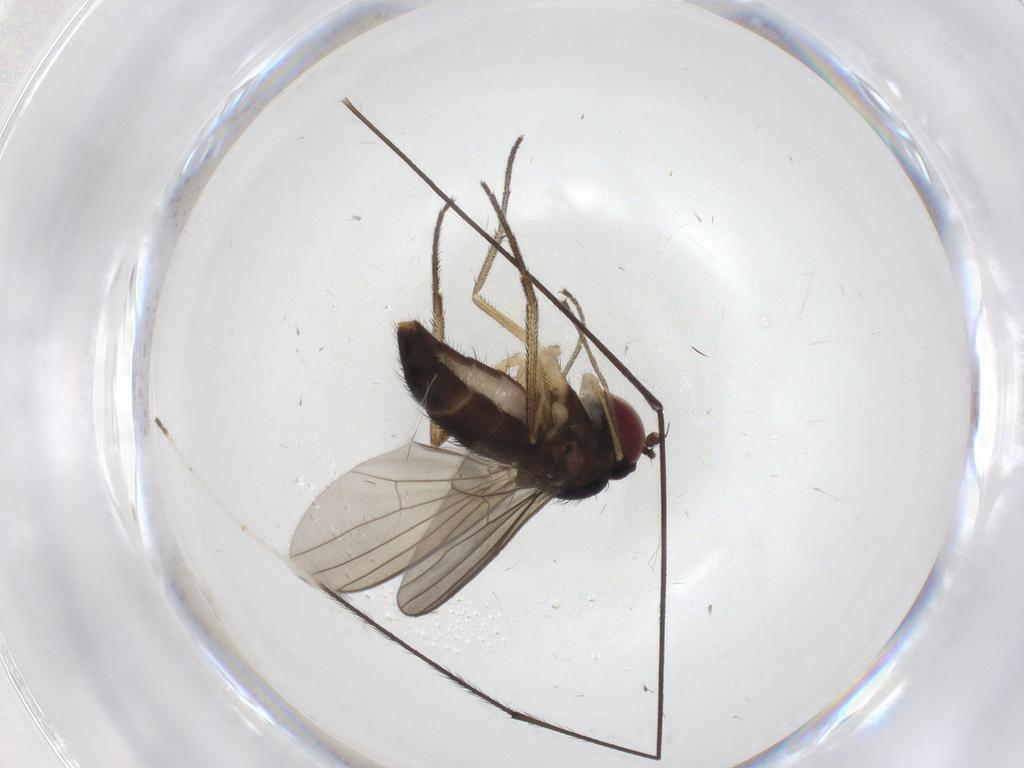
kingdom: Animalia
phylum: Arthropoda
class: Insecta
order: Diptera
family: Dolichopodidae
